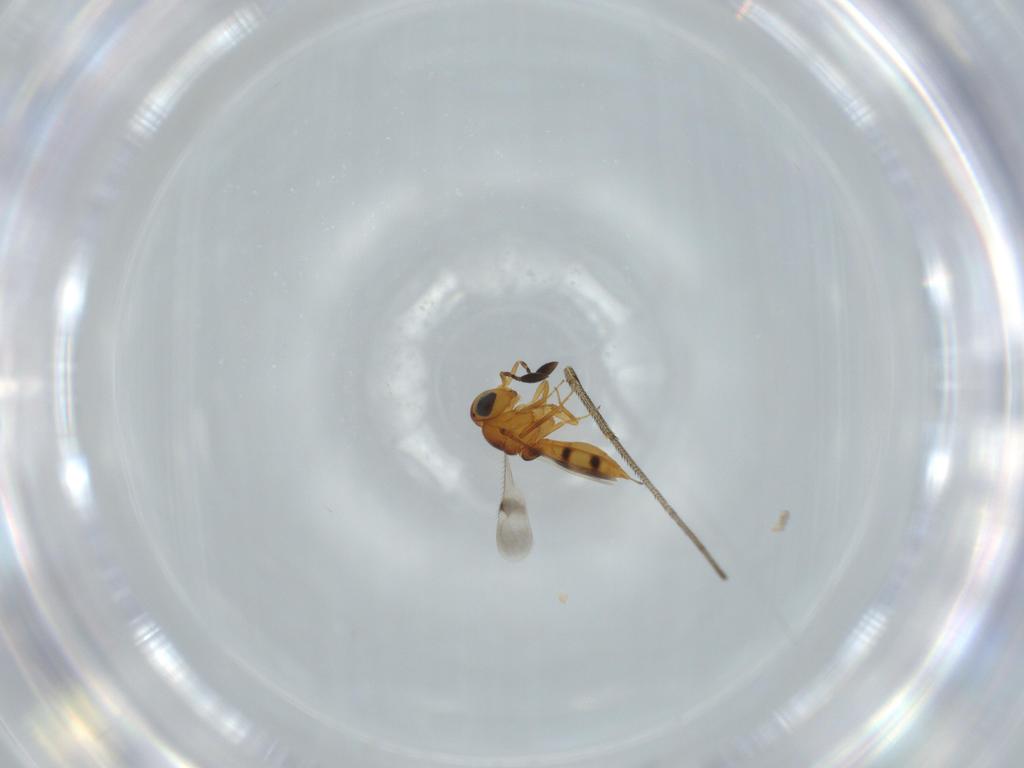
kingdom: Animalia
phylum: Arthropoda
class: Insecta
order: Hymenoptera
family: Scelionidae
